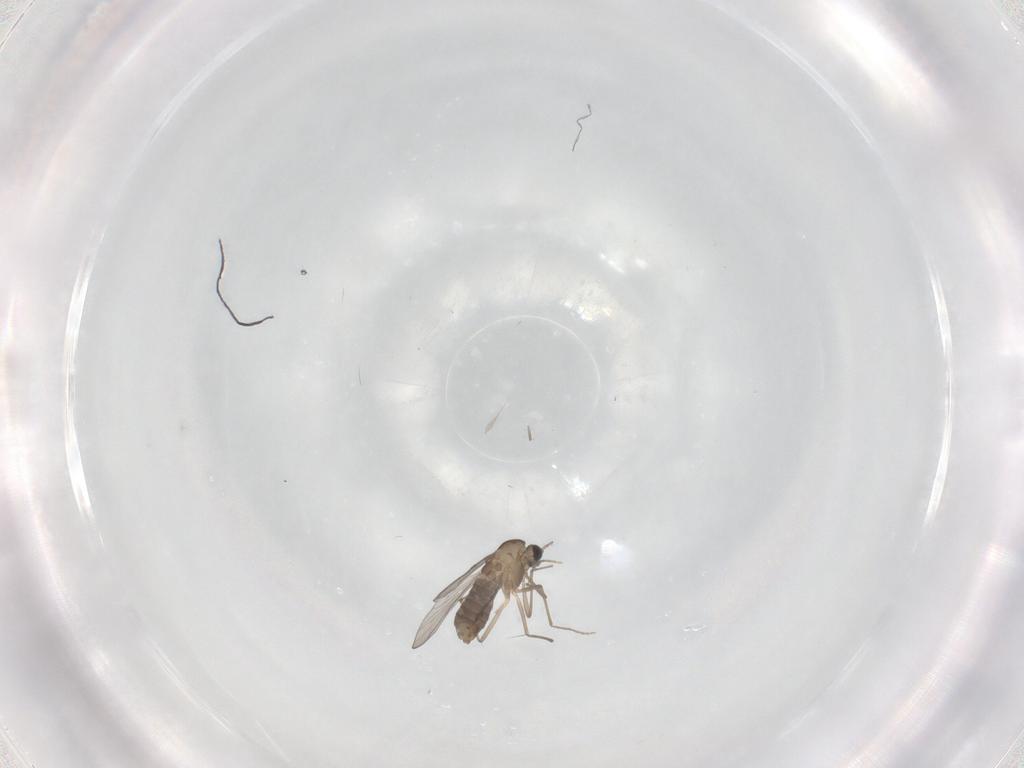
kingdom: Animalia
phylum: Arthropoda
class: Insecta
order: Diptera
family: Chironomidae
